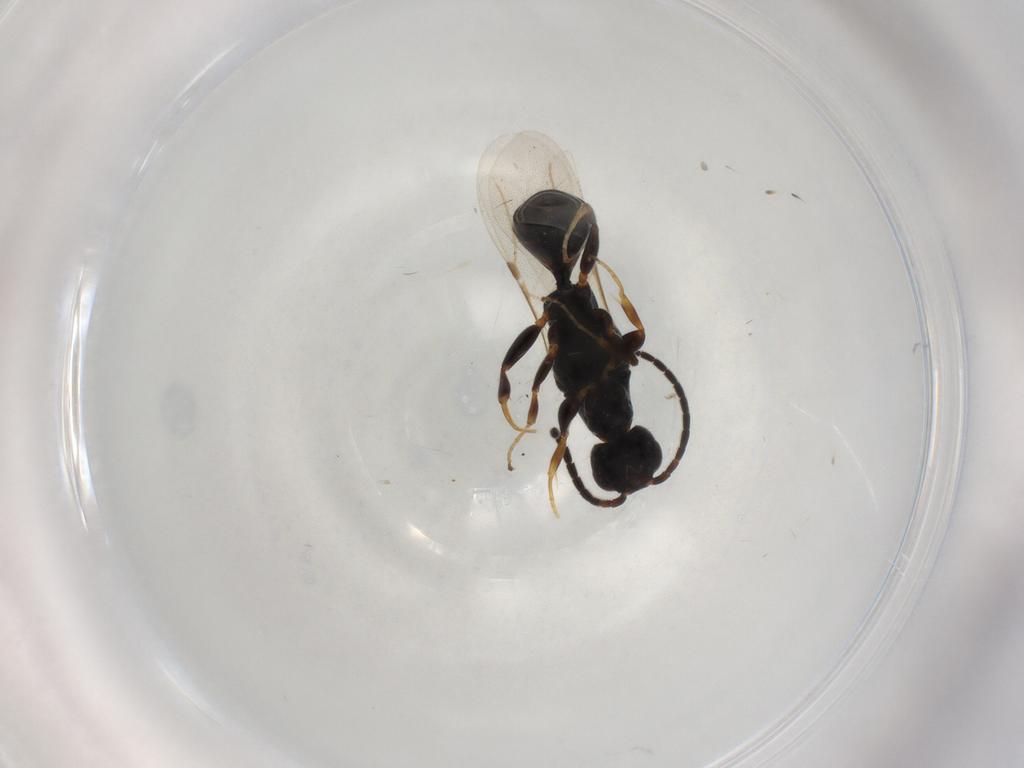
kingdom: Animalia
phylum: Arthropoda
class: Insecta
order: Hymenoptera
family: Bethylidae
